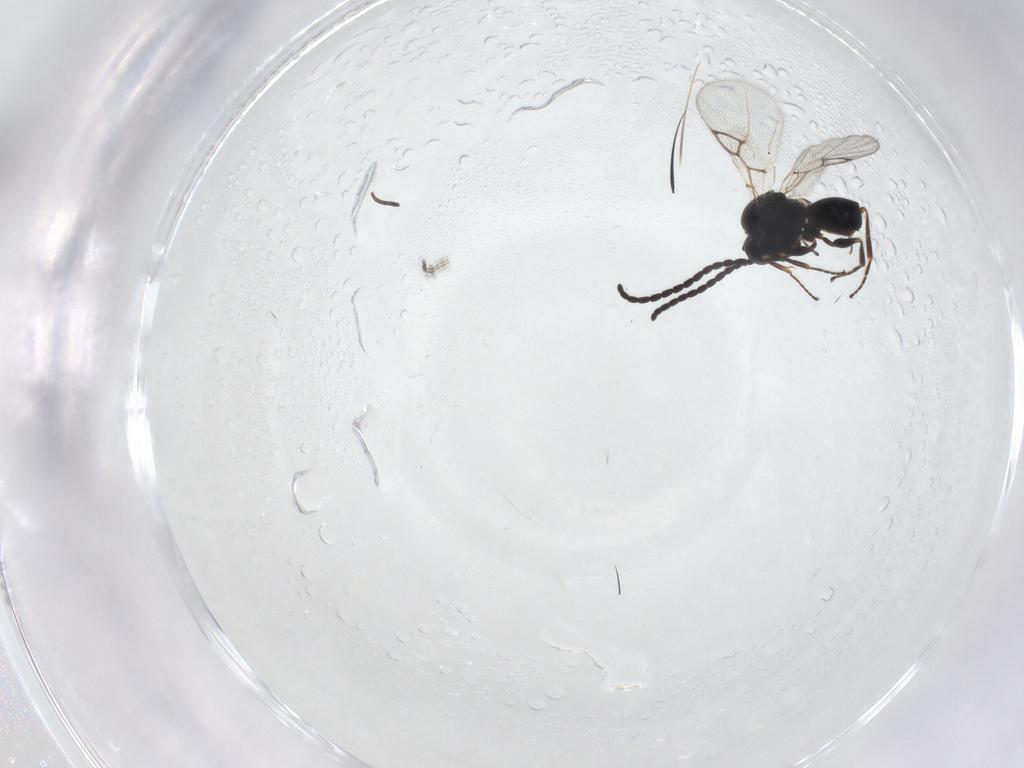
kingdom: Animalia
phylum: Arthropoda
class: Insecta
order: Hymenoptera
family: Figitidae
